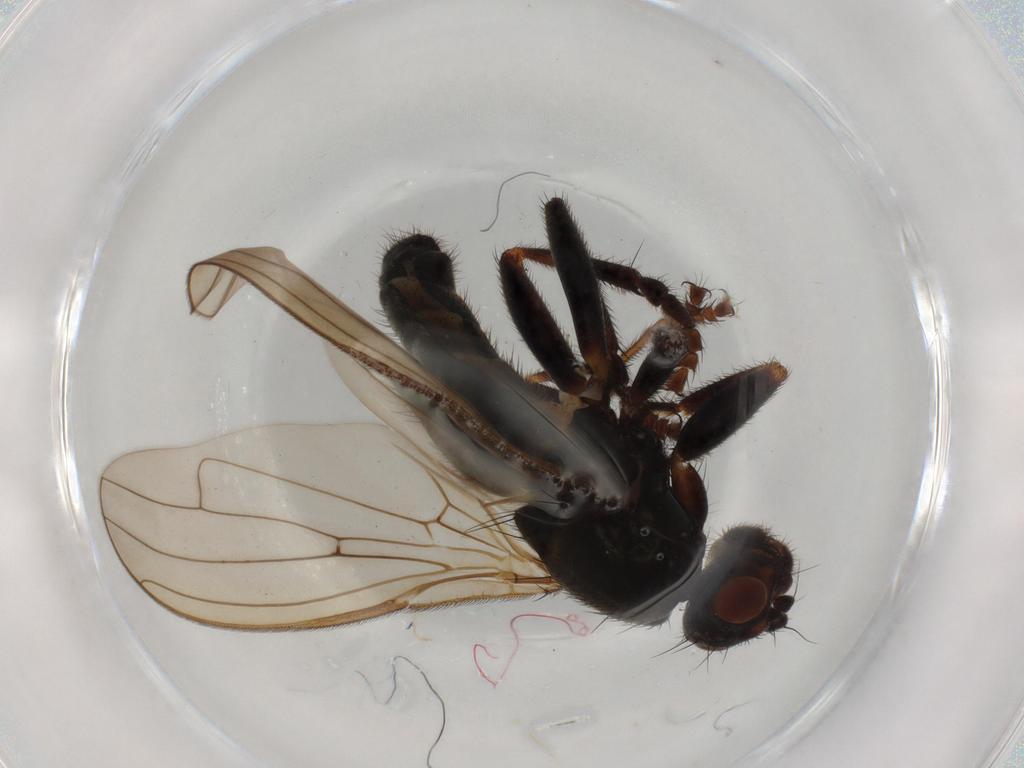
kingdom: Animalia
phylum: Arthropoda
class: Insecta
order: Diptera
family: Sphaeroceridae
